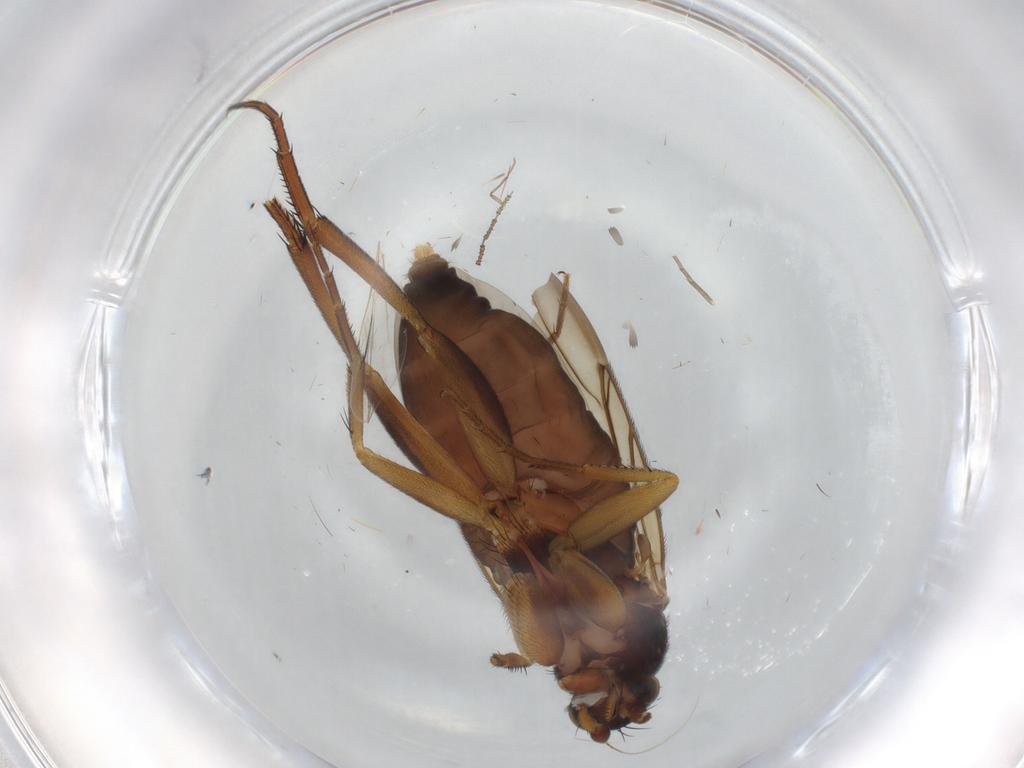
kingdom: Animalia
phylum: Arthropoda
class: Insecta
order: Diptera
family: Phoridae
